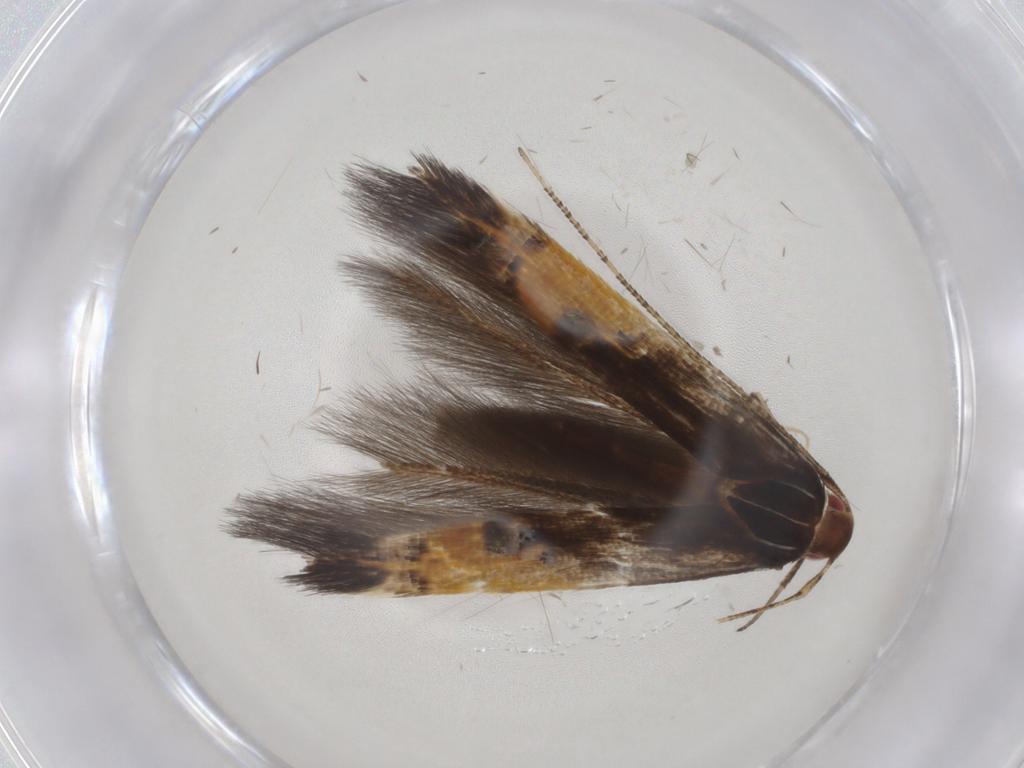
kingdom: Animalia
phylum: Arthropoda
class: Insecta
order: Lepidoptera
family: Cosmopterigidae
